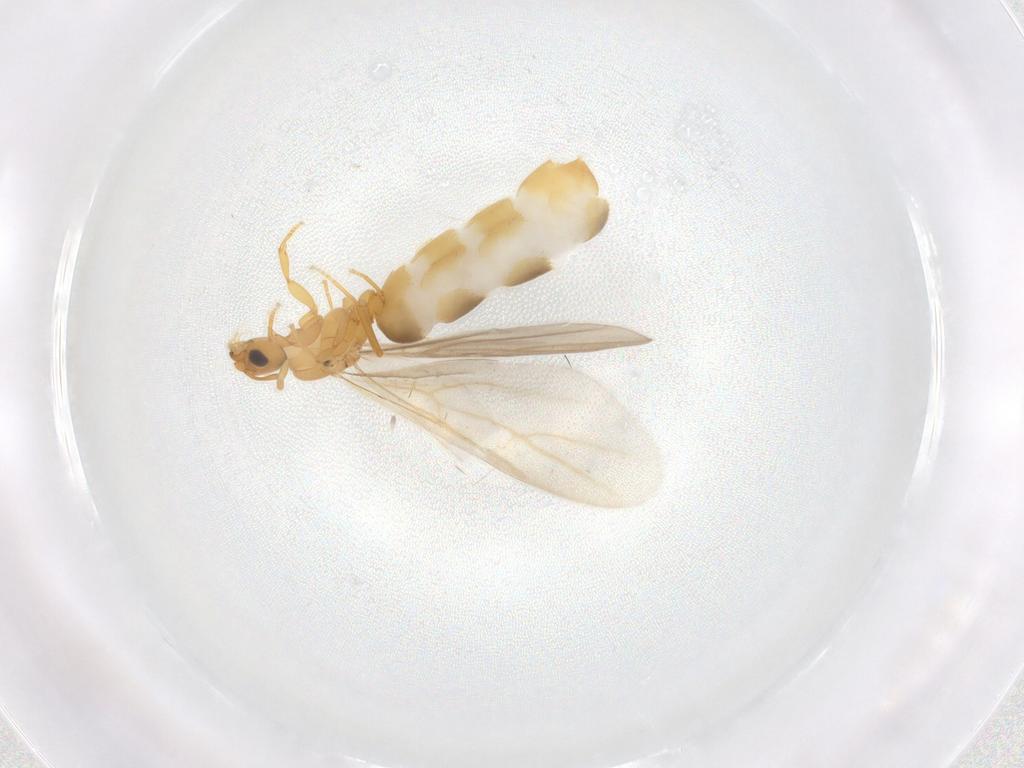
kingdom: Animalia
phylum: Arthropoda
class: Insecta
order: Hymenoptera
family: Formicidae
